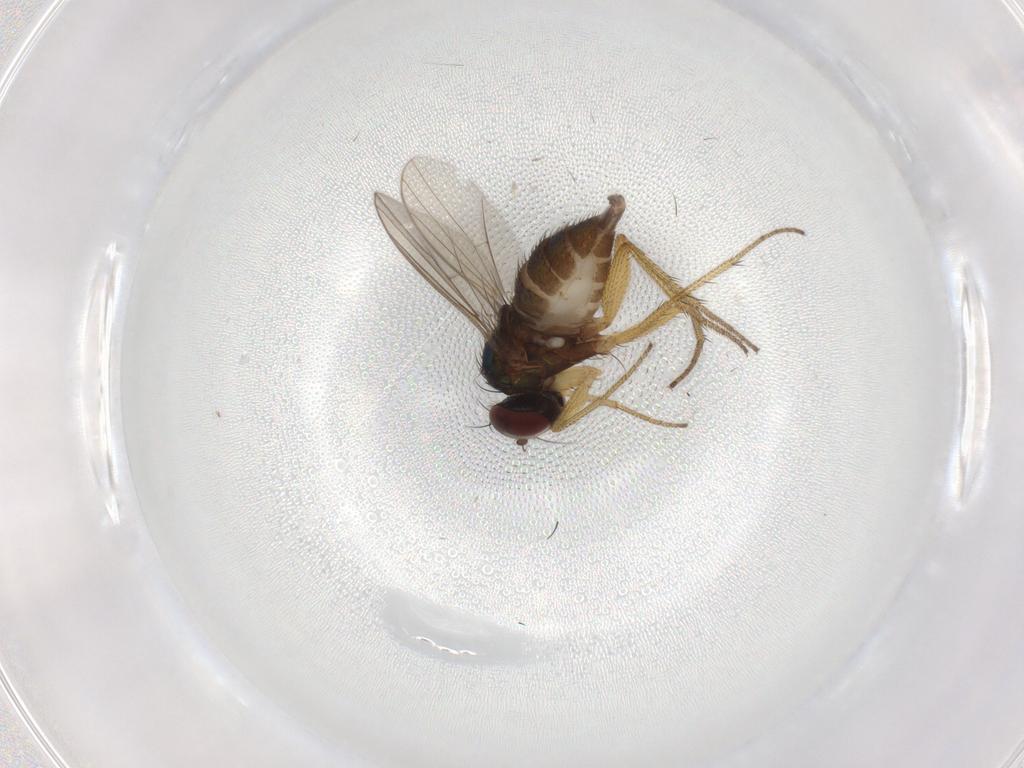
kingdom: Animalia
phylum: Arthropoda
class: Insecta
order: Diptera
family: Dolichopodidae
